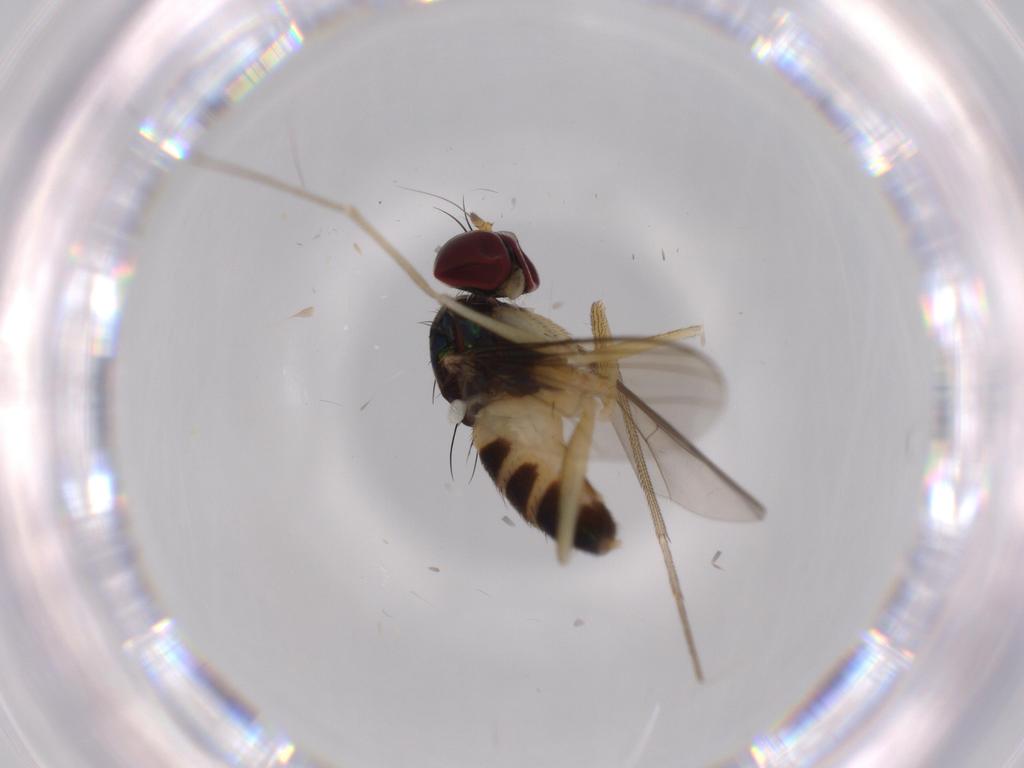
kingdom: Animalia
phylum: Arthropoda
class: Insecta
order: Diptera
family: Dolichopodidae
